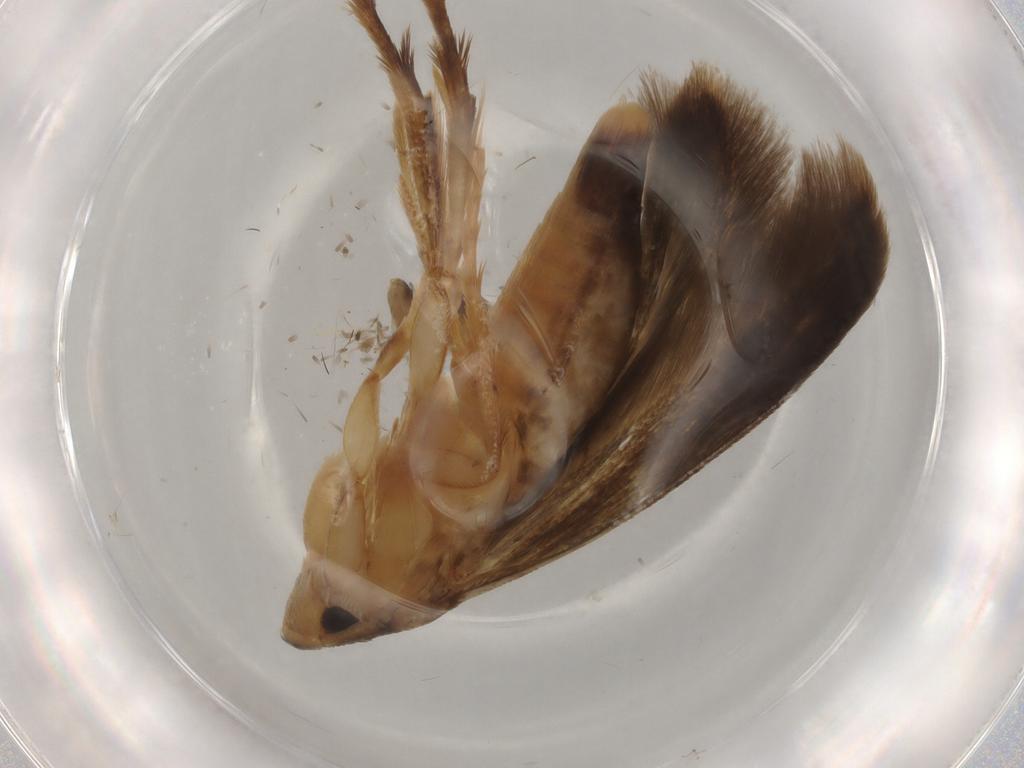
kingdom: Animalia
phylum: Arthropoda
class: Insecta
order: Lepidoptera
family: Tineidae
